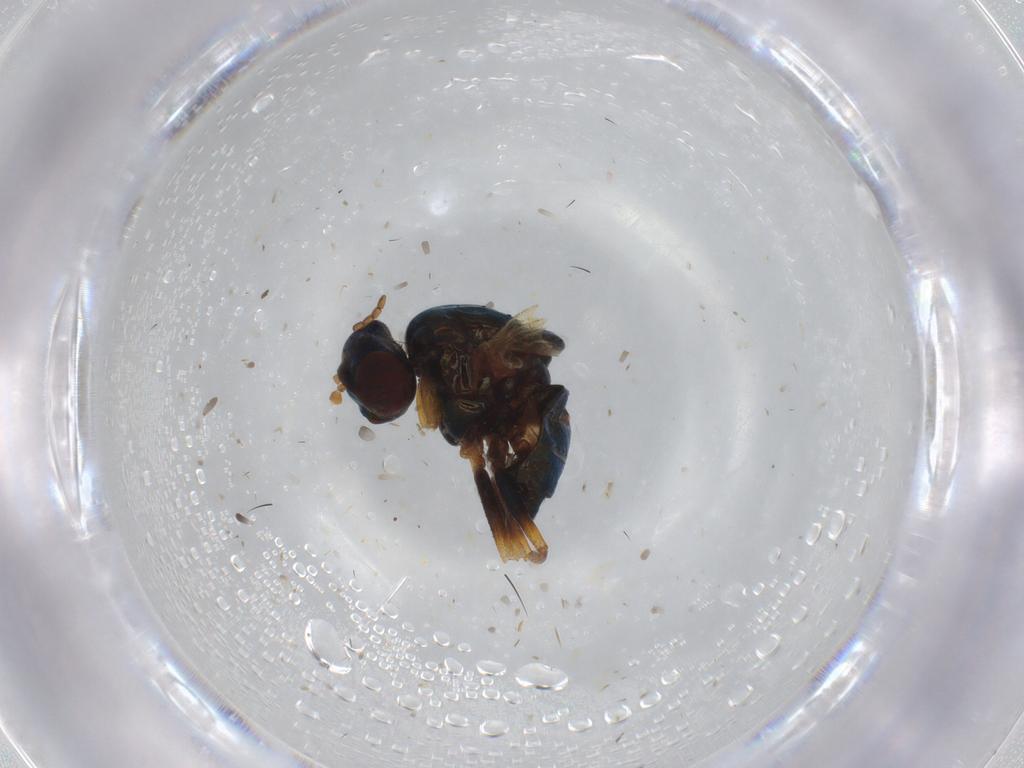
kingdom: Animalia
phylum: Arthropoda
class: Insecta
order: Diptera
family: Lauxaniidae
